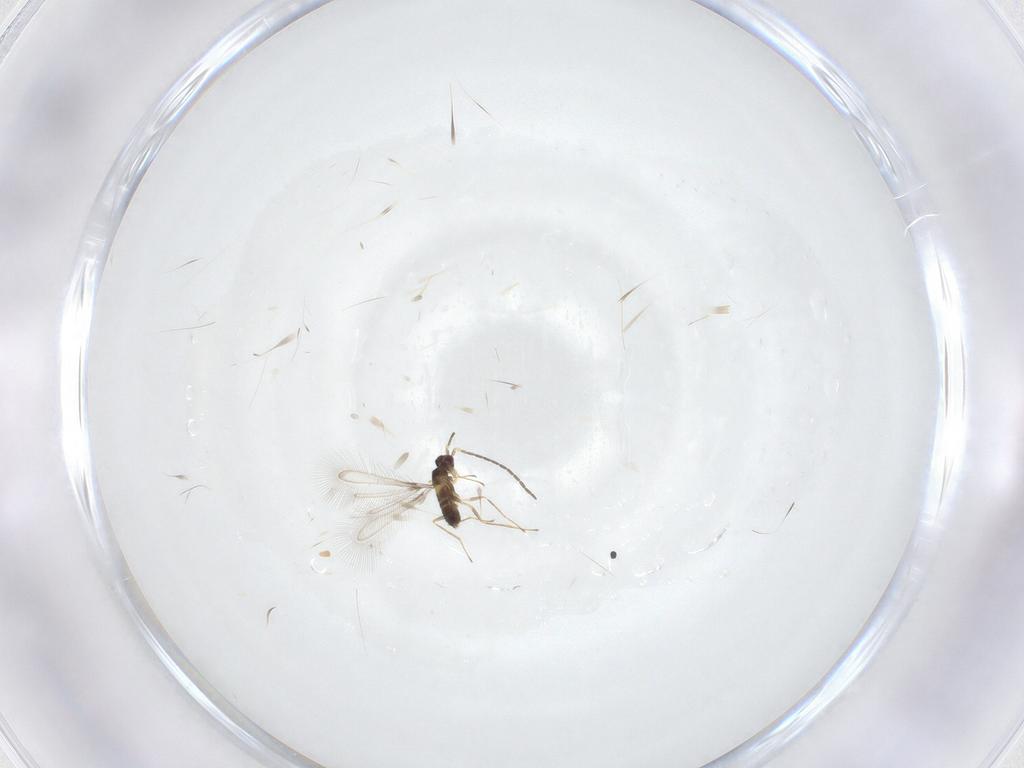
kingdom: Animalia
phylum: Arthropoda
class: Insecta
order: Hymenoptera
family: Mymaridae
